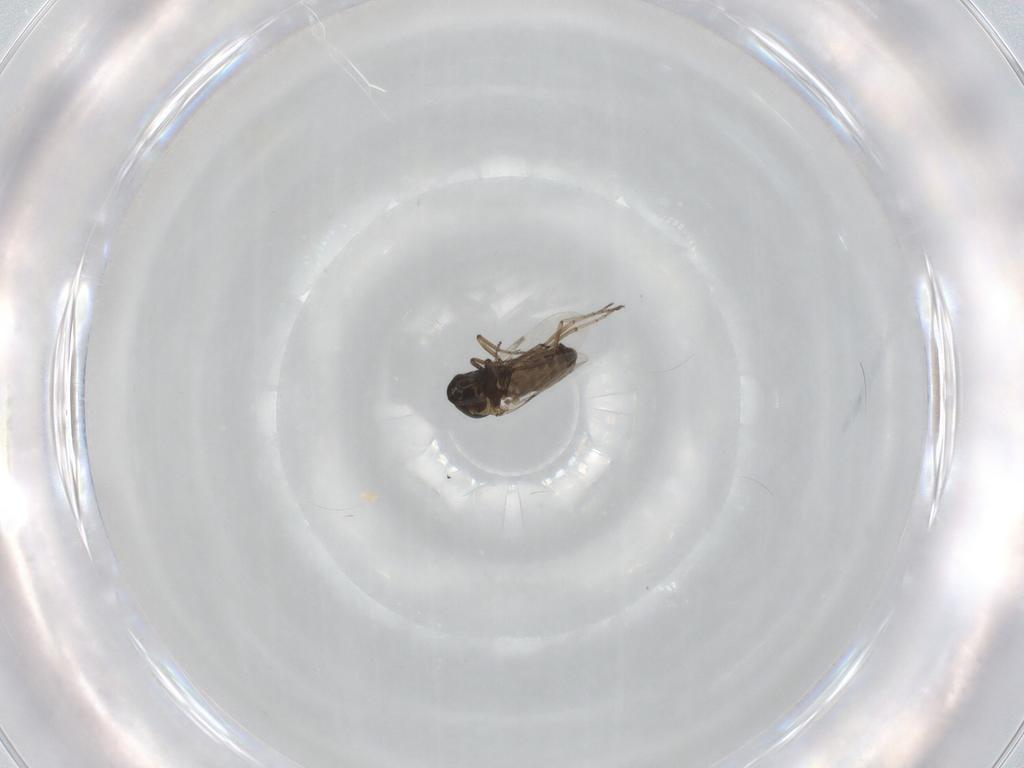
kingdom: Animalia
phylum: Arthropoda
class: Insecta
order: Diptera
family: Ceratopogonidae
